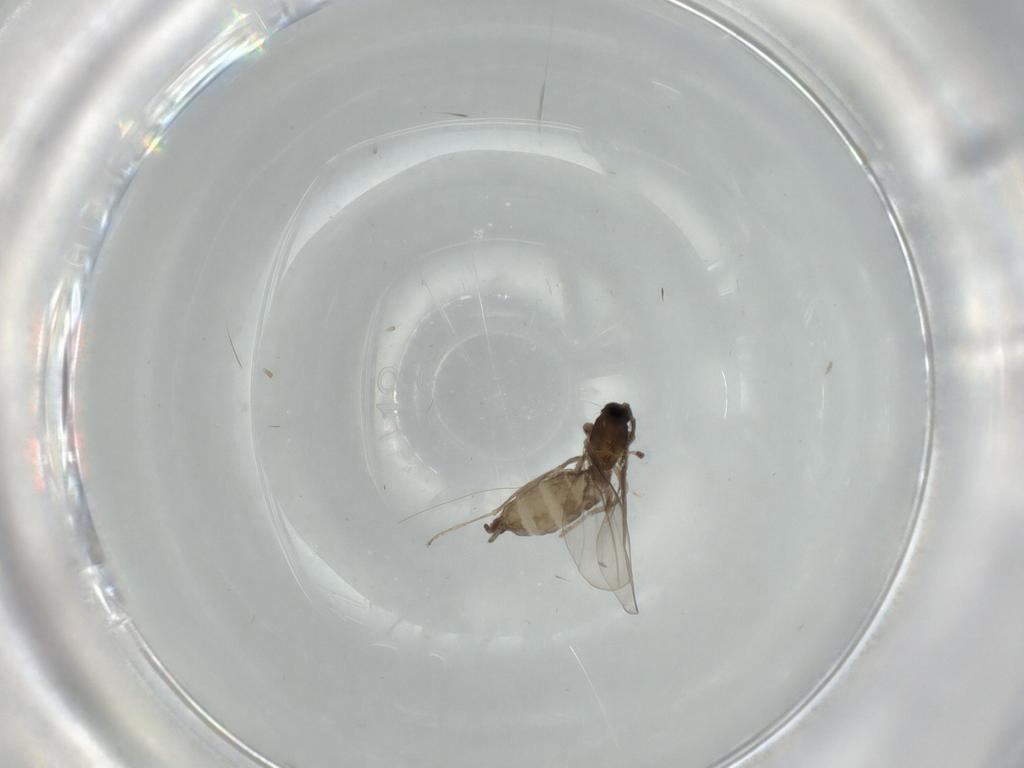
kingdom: Animalia
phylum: Arthropoda
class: Insecta
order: Diptera
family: Cecidomyiidae
